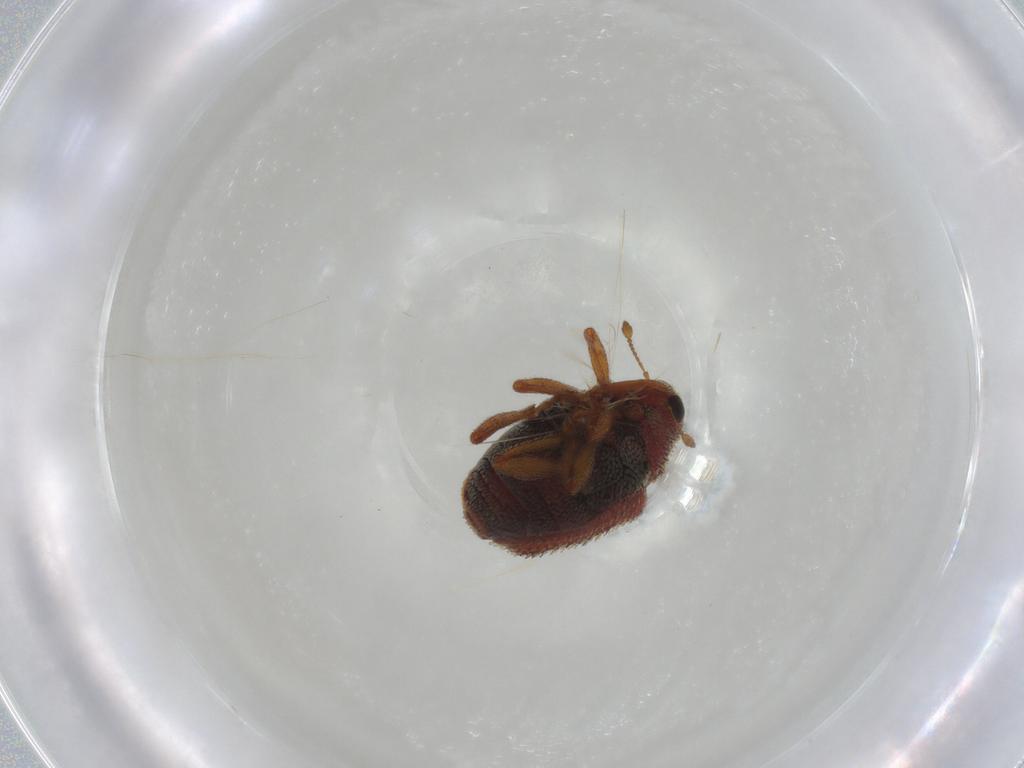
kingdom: Animalia
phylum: Arthropoda
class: Insecta
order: Coleoptera
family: Curculionidae
